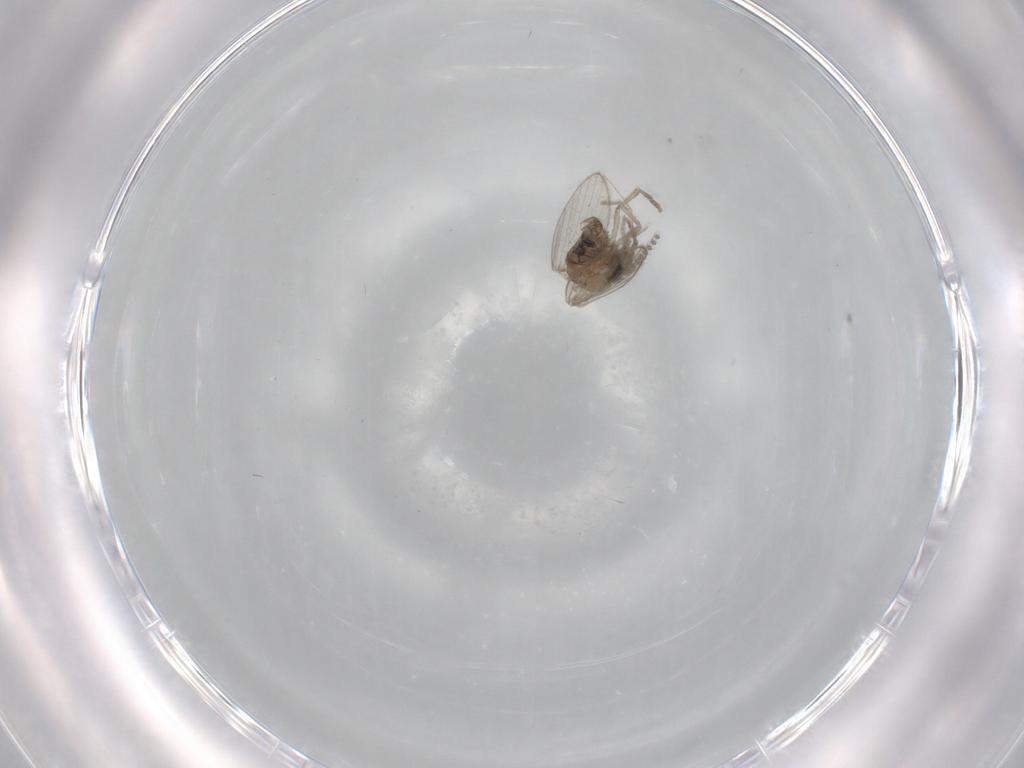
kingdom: Animalia
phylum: Arthropoda
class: Insecta
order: Diptera
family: Psychodidae
